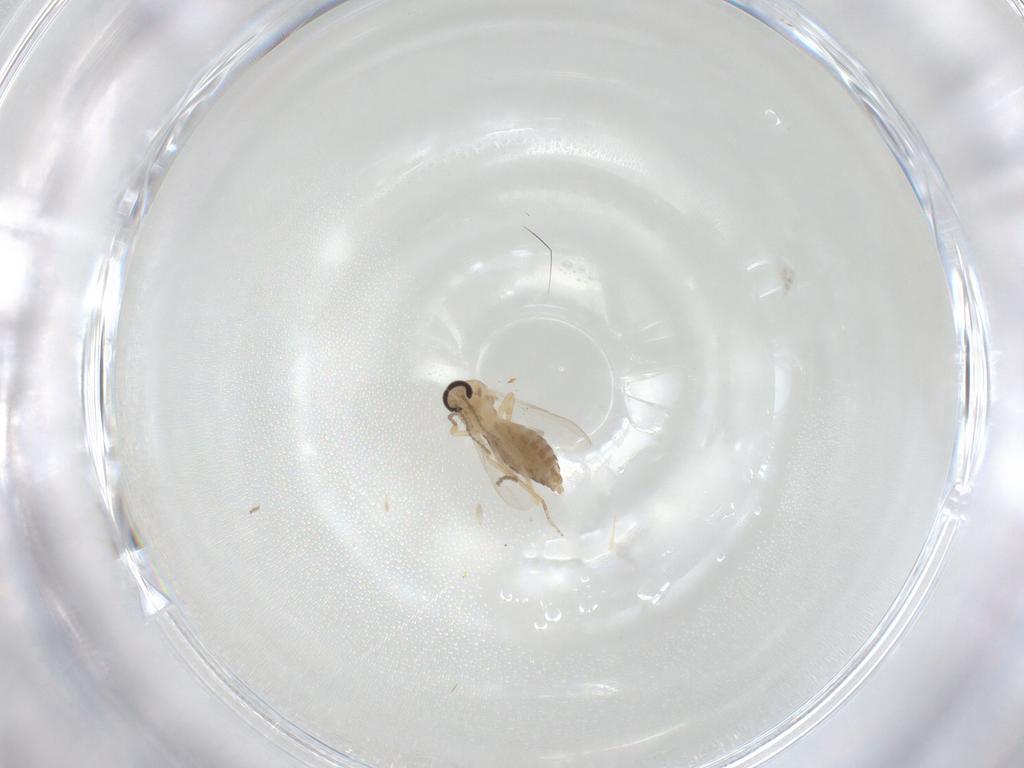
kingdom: Animalia
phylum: Arthropoda
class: Insecta
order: Diptera
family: Ceratopogonidae
